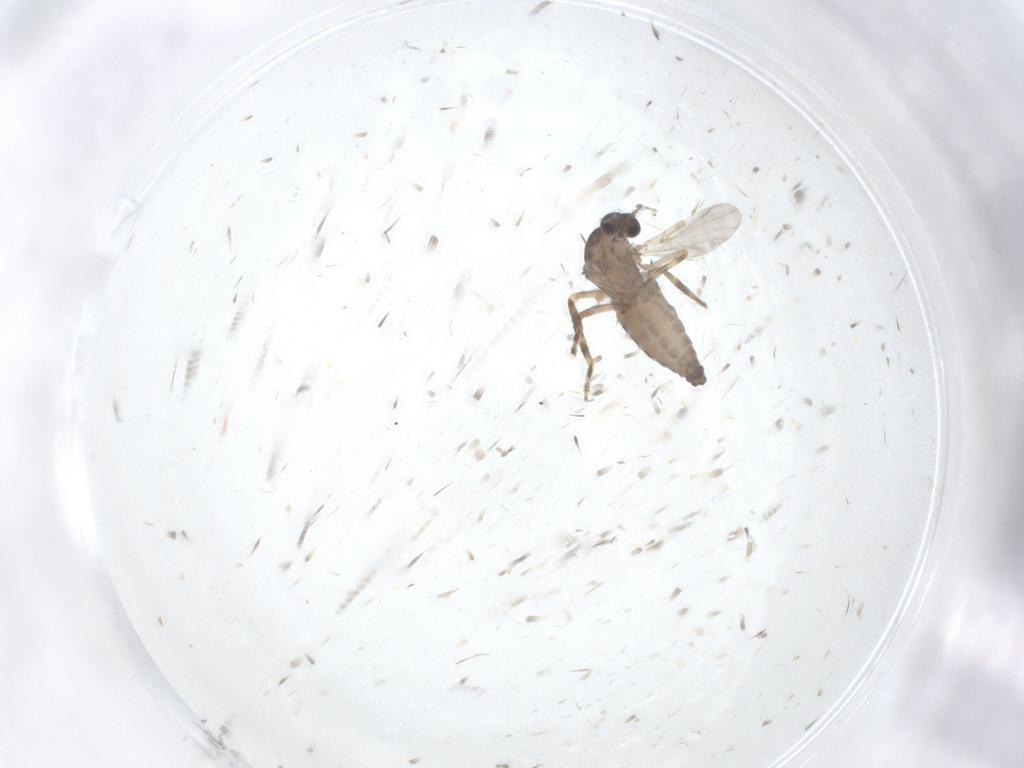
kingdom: Animalia
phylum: Arthropoda
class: Insecta
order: Diptera
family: Ceratopogonidae
